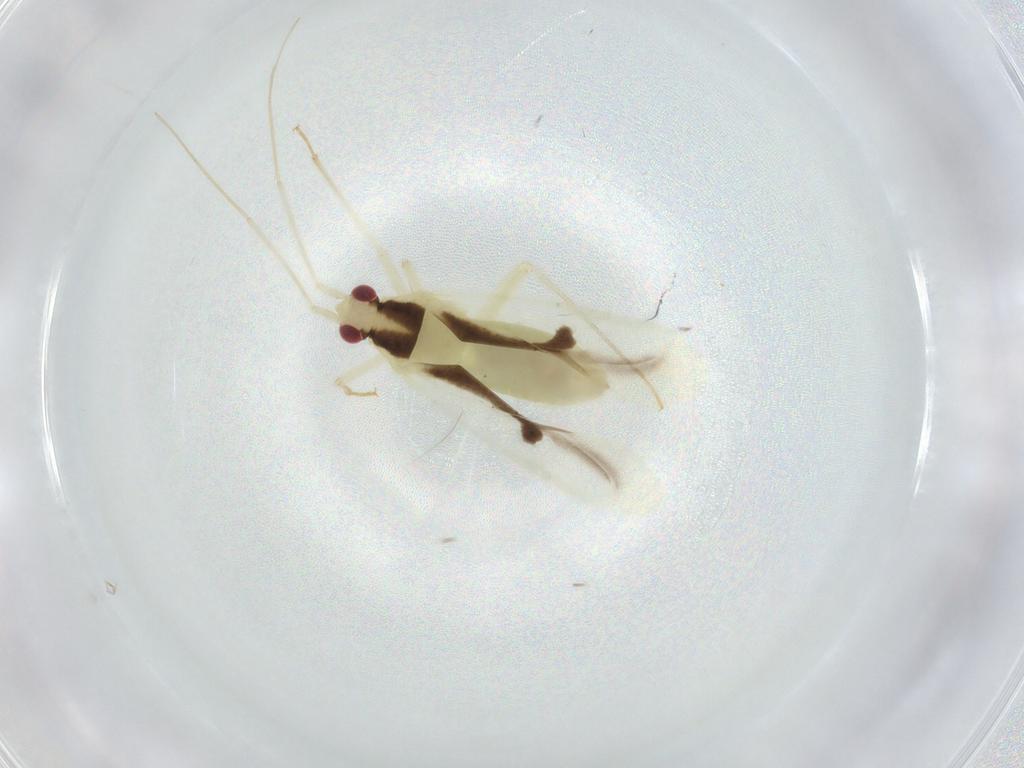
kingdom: Animalia
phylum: Arthropoda
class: Insecta
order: Hemiptera
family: Miridae
